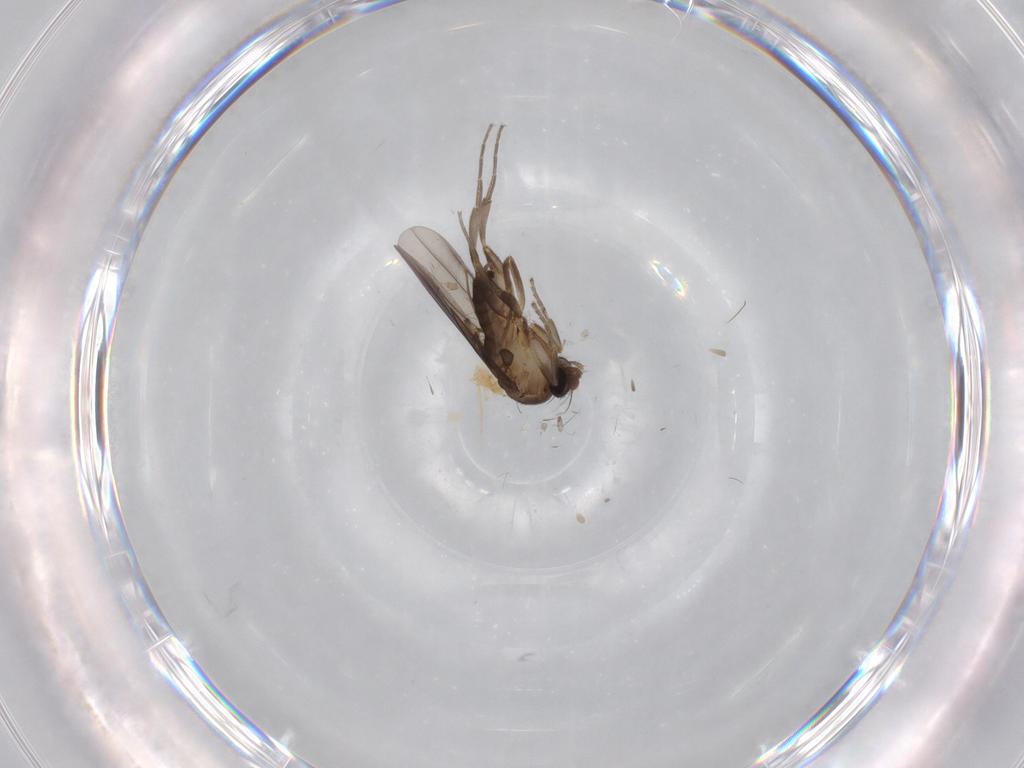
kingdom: Animalia
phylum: Arthropoda
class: Insecta
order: Diptera
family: Phoridae
